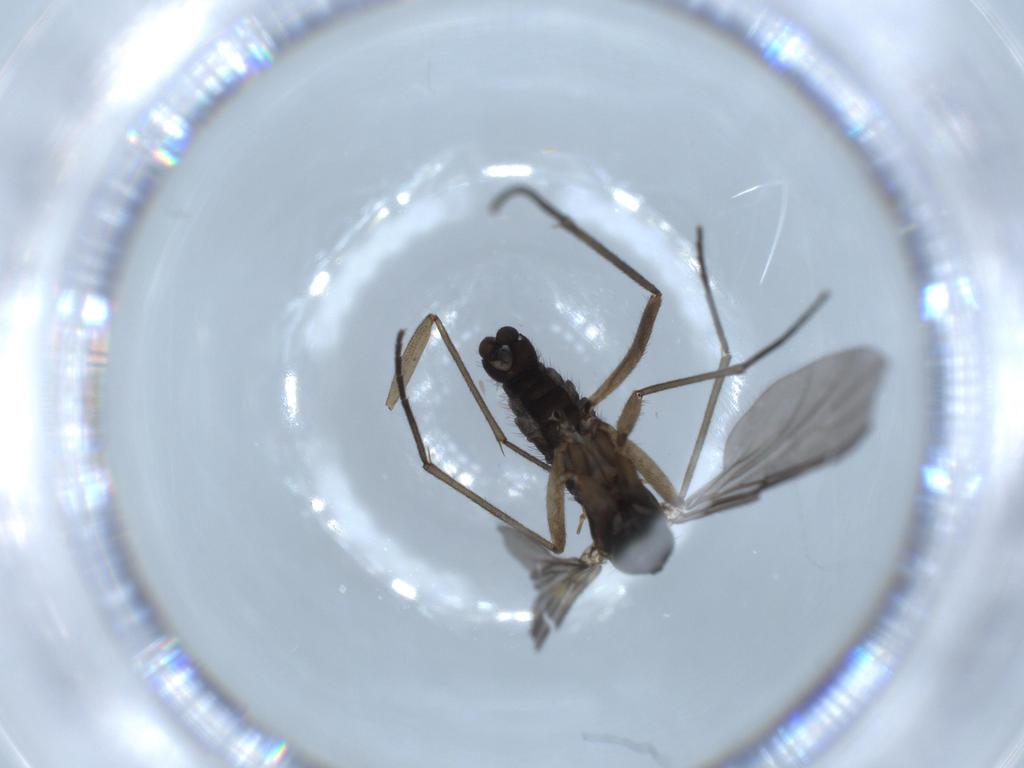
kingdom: Animalia
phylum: Arthropoda
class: Insecta
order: Diptera
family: Sciaridae
